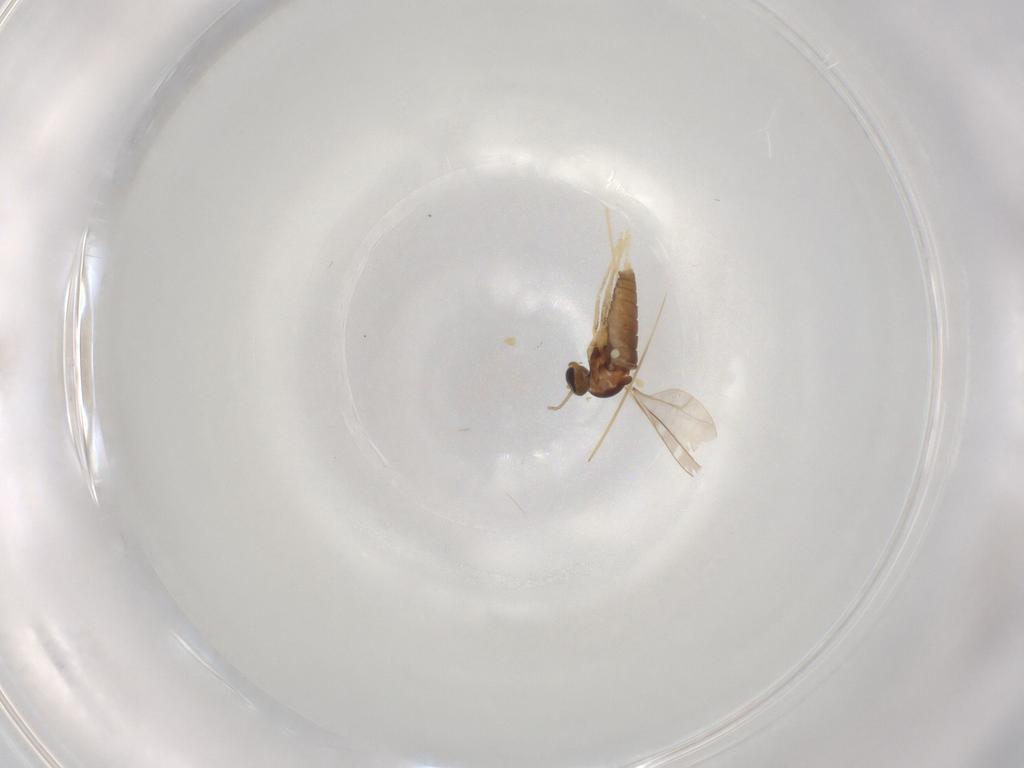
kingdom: Animalia
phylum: Arthropoda
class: Insecta
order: Diptera
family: Cecidomyiidae
